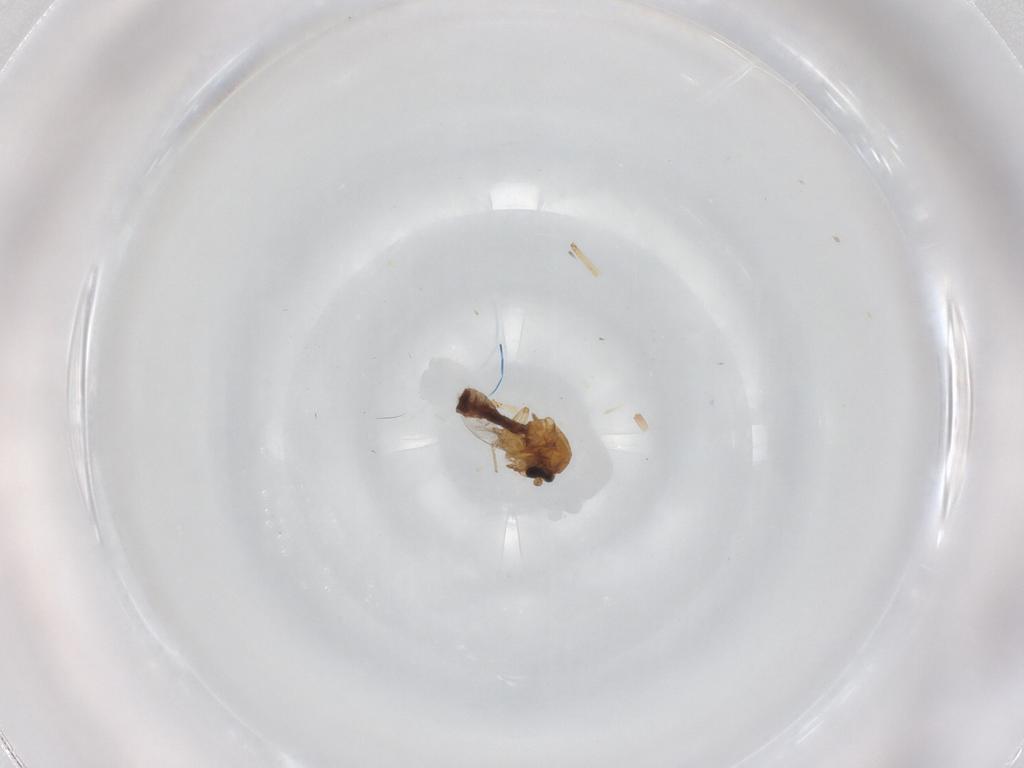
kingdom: Animalia
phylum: Arthropoda
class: Insecta
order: Diptera
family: Ceratopogonidae
